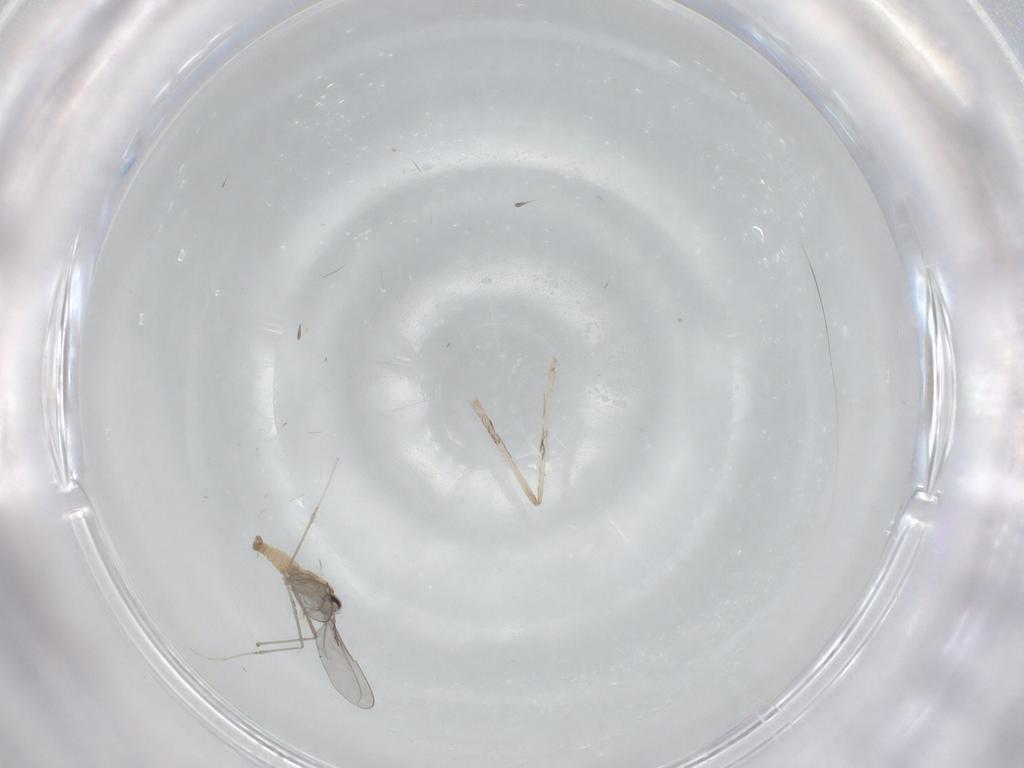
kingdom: Animalia
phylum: Arthropoda
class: Insecta
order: Diptera
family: Cecidomyiidae
